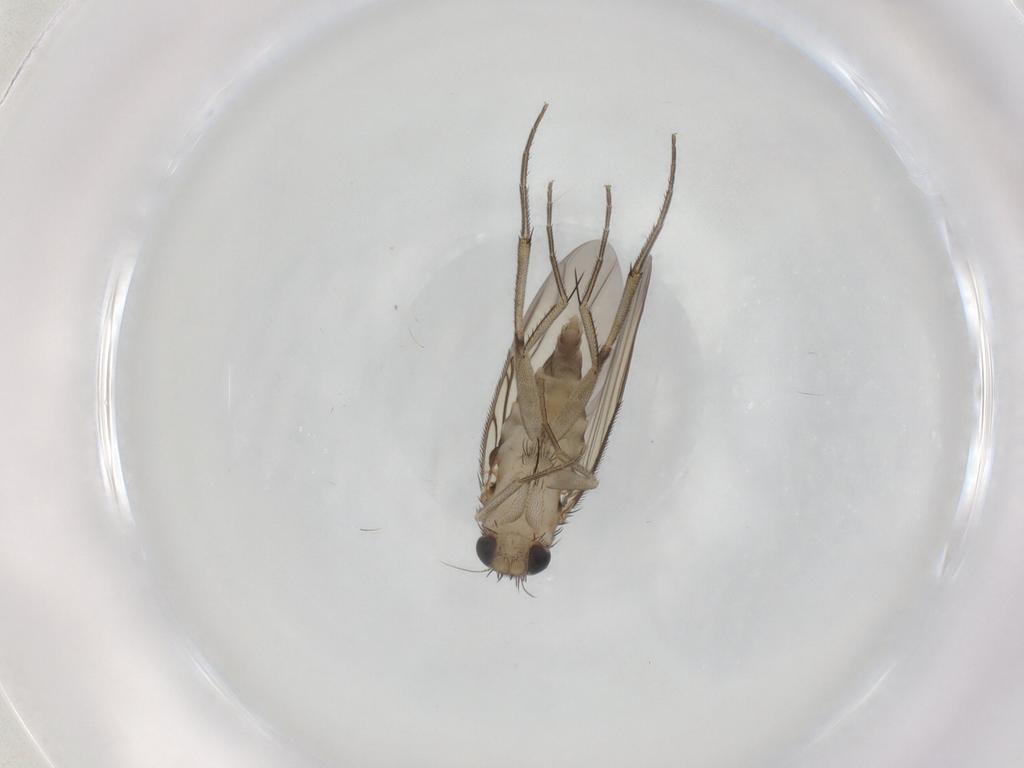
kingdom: Animalia
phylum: Arthropoda
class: Insecta
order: Diptera
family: Phoridae
